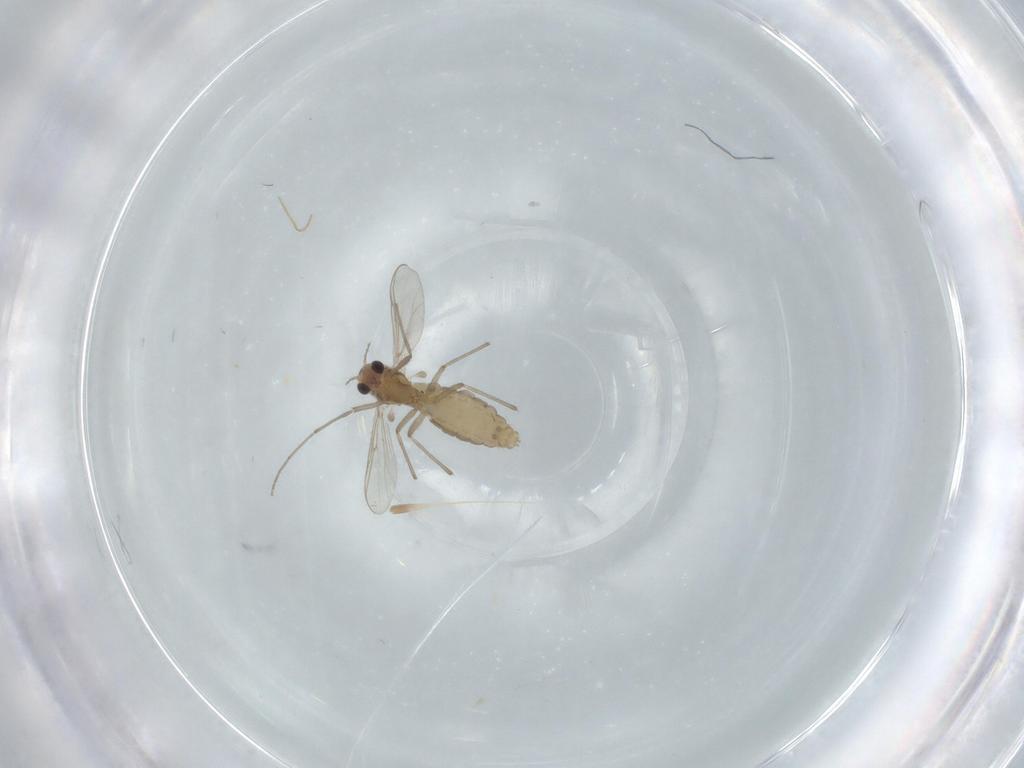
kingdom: Animalia
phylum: Arthropoda
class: Insecta
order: Diptera
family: Chironomidae
